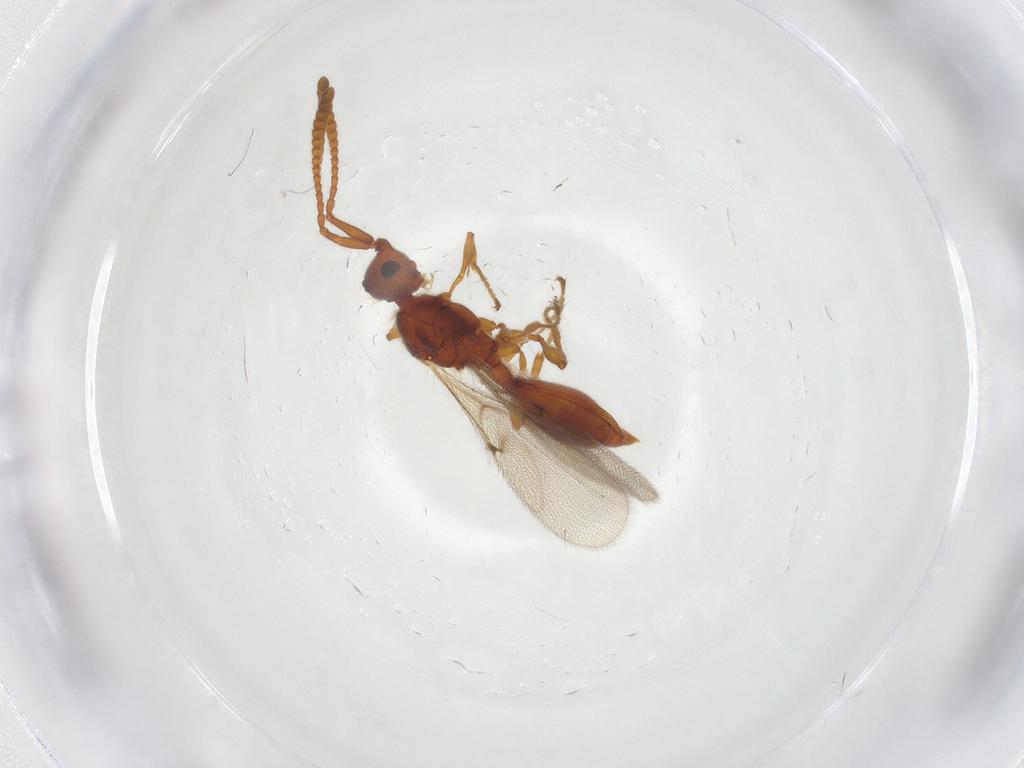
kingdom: Animalia
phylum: Arthropoda
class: Insecta
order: Hymenoptera
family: Diapriidae
